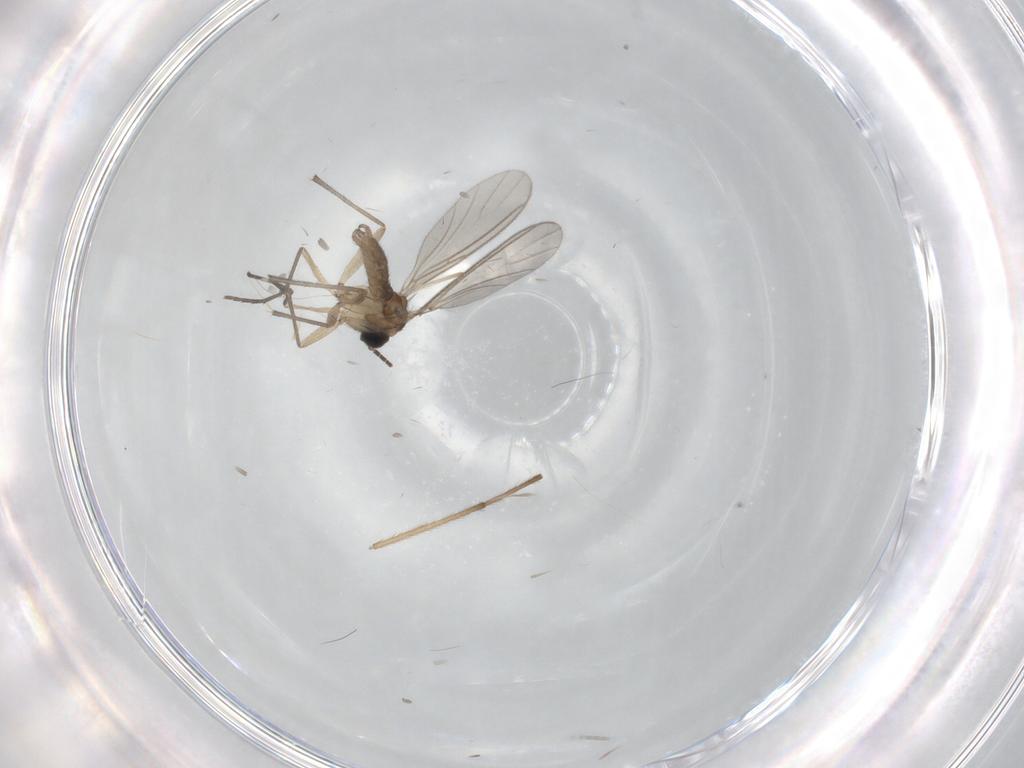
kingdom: Animalia
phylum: Arthropoda
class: Insecta
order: Diptera
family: Sciaridae
